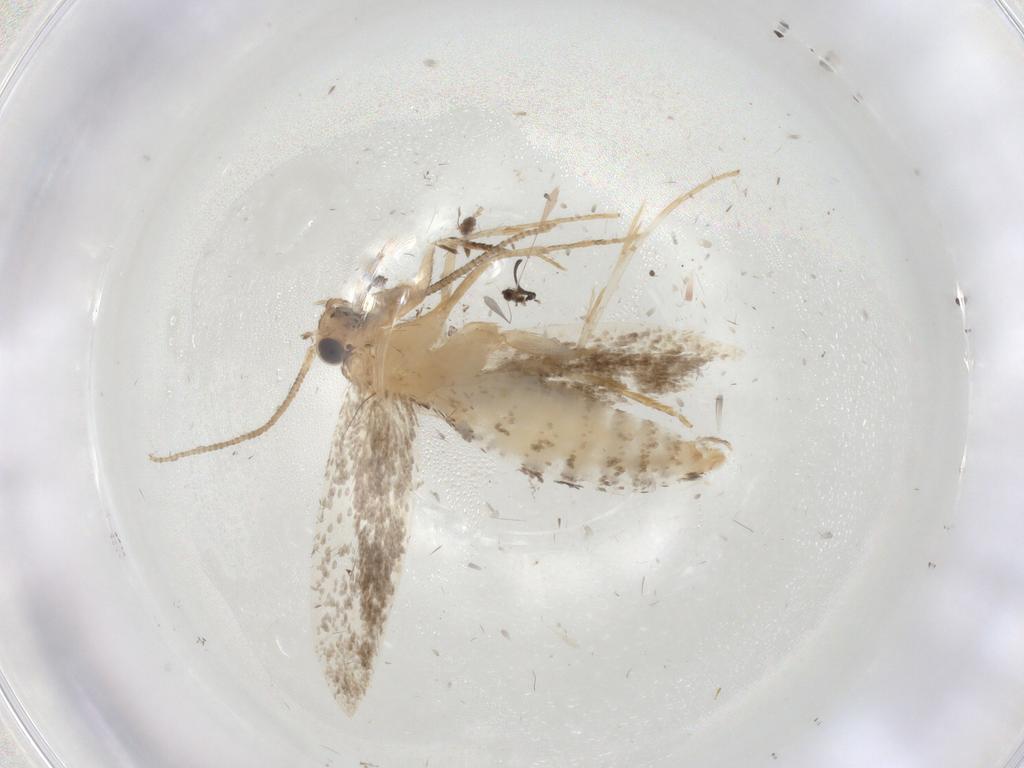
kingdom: Animalia
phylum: Arthropoda
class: Insecta
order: Lepidoptera
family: Tineidae
